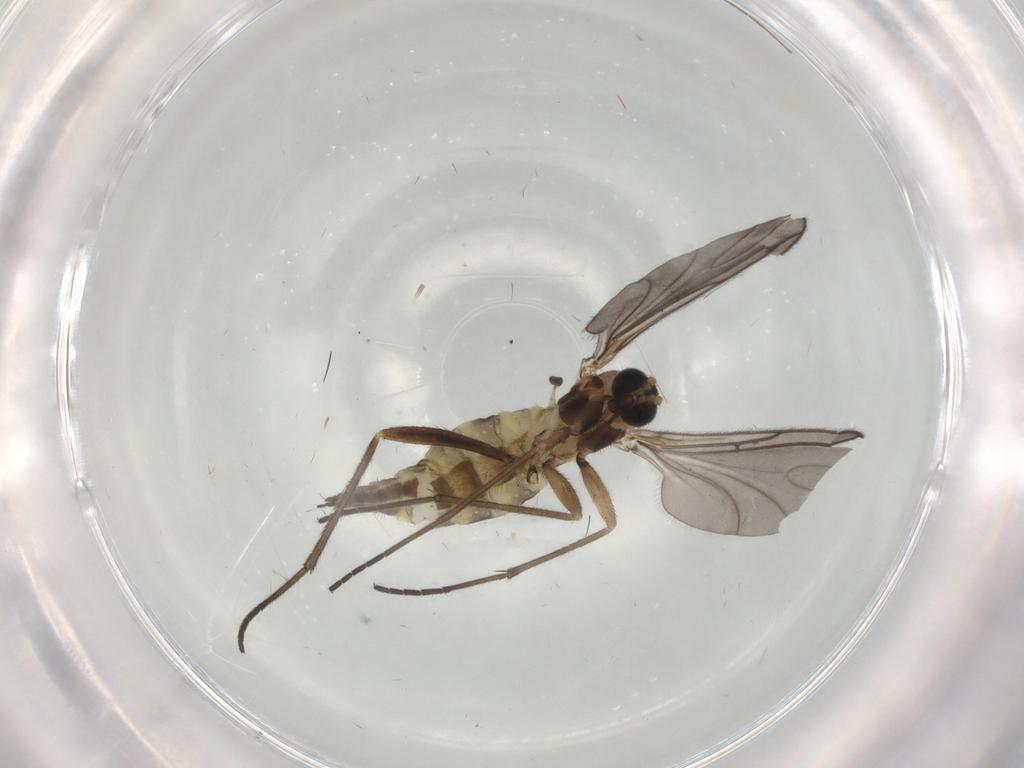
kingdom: Animalia
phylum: Arthropoda
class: Insecta
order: Diptera
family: Sciaridae
